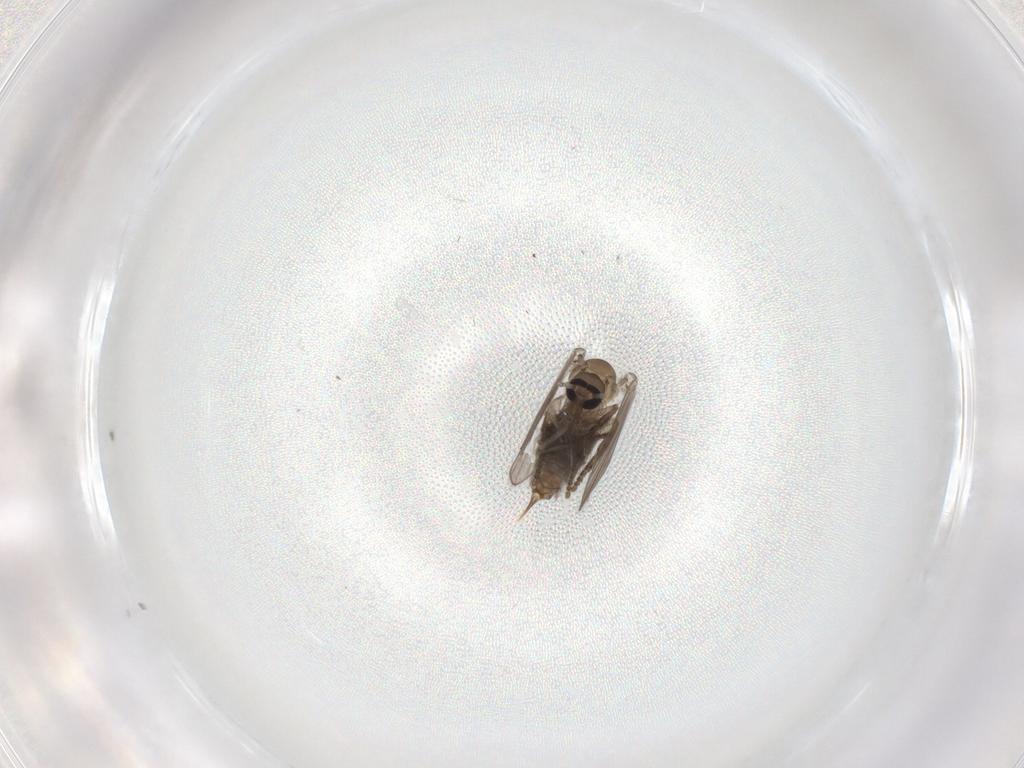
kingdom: Animalia
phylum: Arthropoda
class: Insecta
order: Diptera
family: Psychodidae
